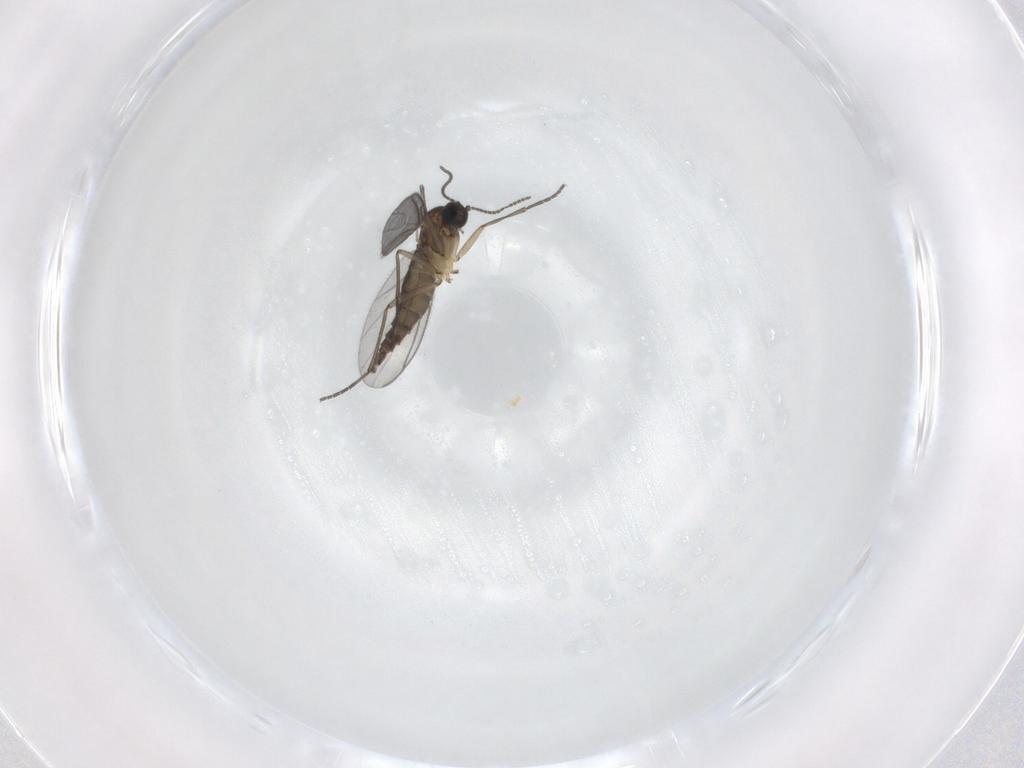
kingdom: Animalia
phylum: Arthropoda
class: Insecta
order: Diptera
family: Sciaridae
